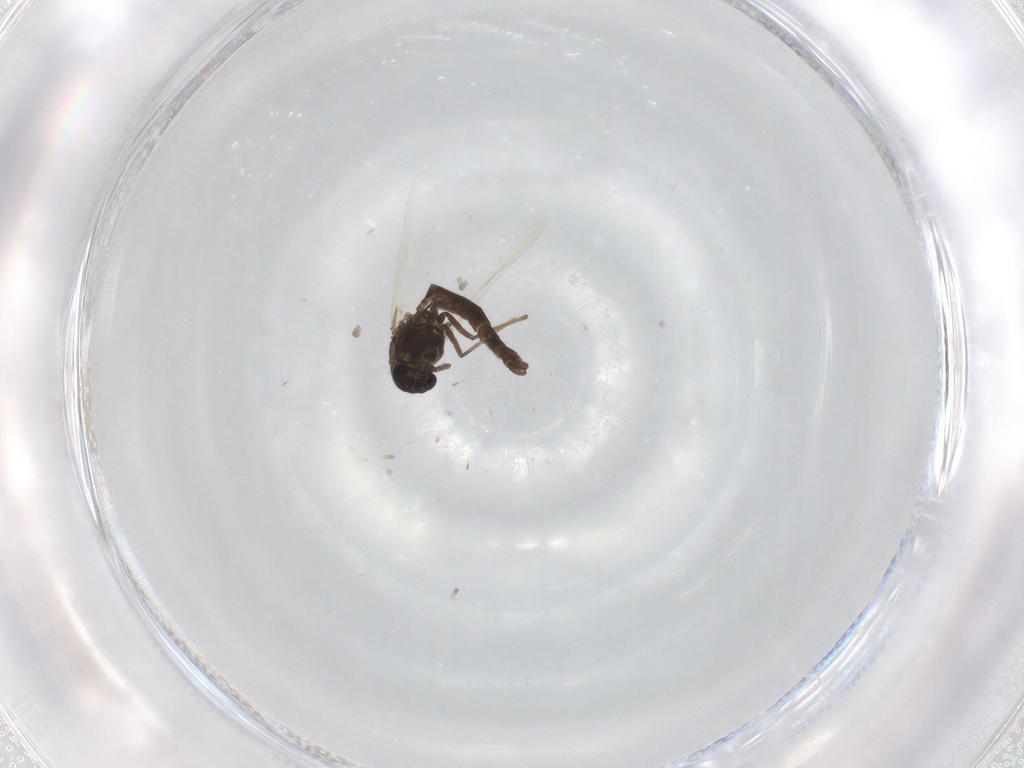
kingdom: Animalia
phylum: Arthropoda
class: Insecta
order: Diptera
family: Chironomidae
